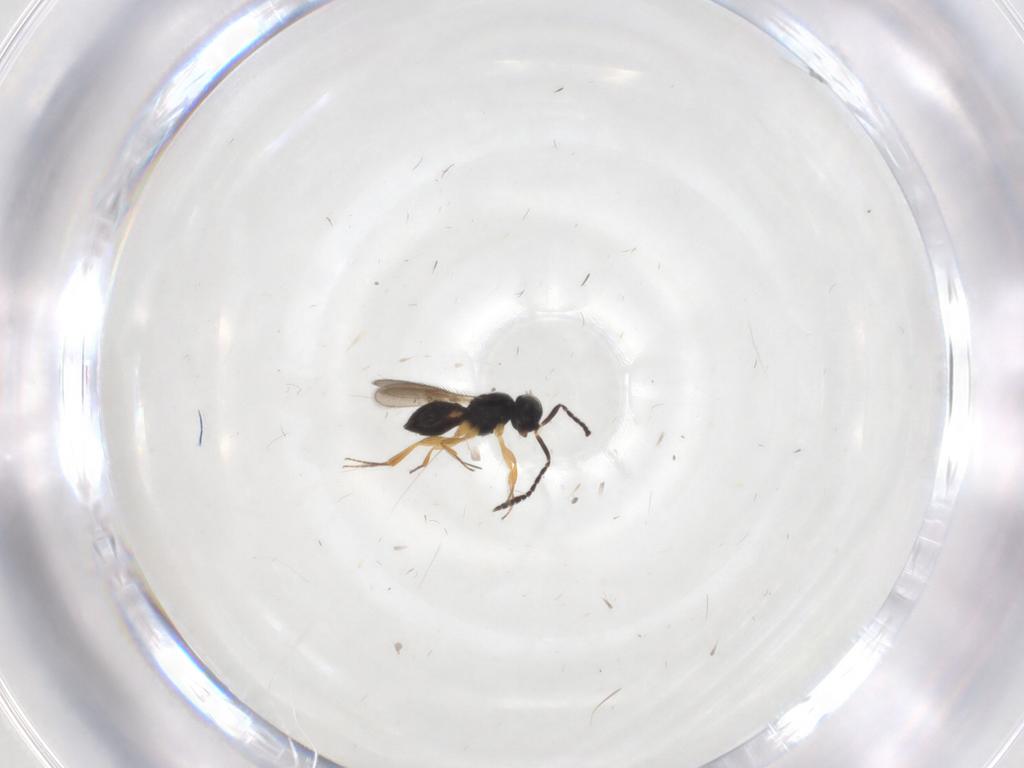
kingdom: Animalia
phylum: Arthropoda
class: Insecta
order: Hymenoptera
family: Scelionidae
